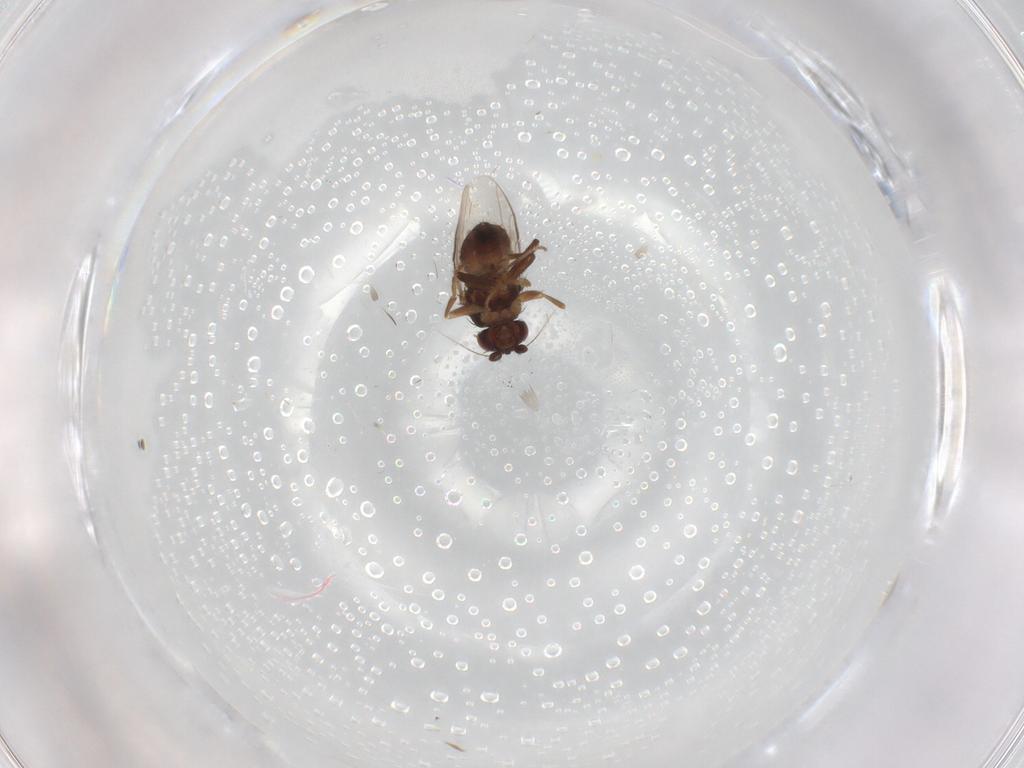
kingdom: Animalia
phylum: Arthropoda
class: Insecta
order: Diptera
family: Sphaeroceridae
